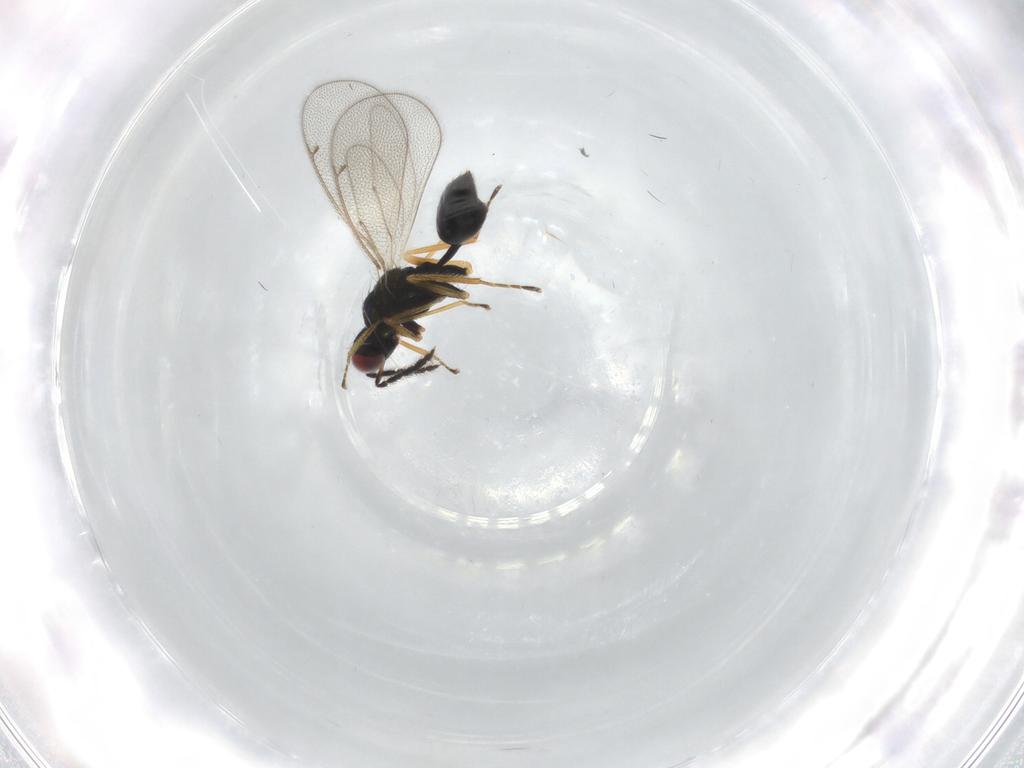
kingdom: Animalia
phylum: Arthropoda
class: Insecta
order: Hymenoptera
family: Eulophidae
